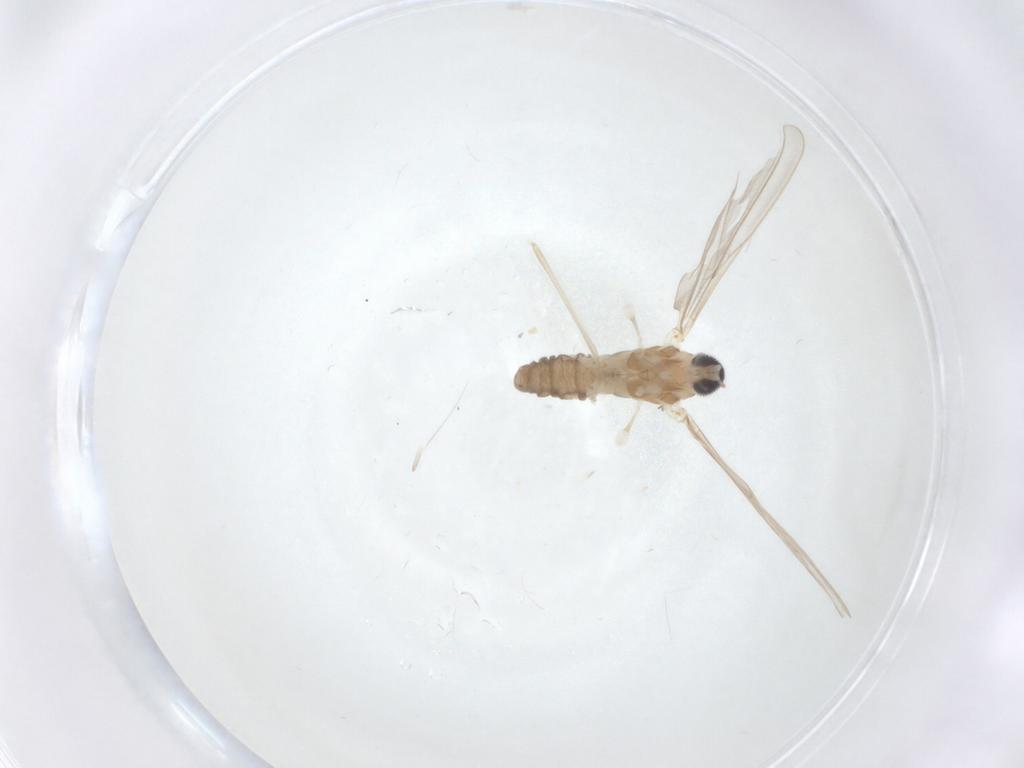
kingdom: Animalia
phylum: Arthropoda
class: Insecta
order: Diptera
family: Cecidomyiidae
